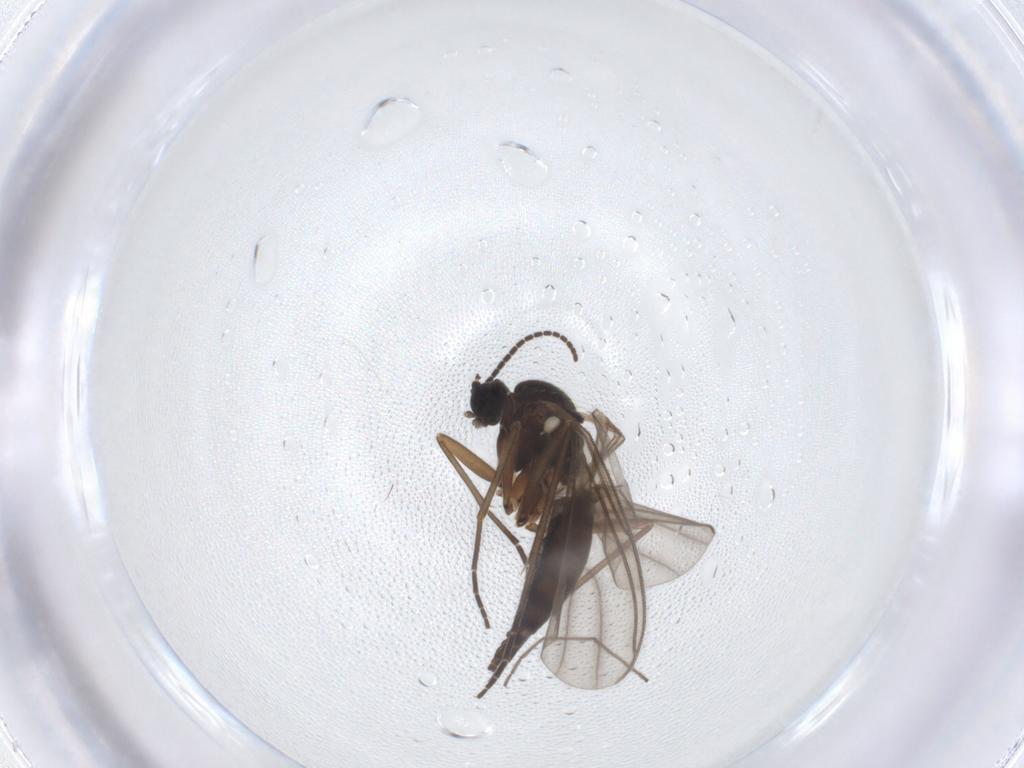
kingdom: Animalia
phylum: Arthropoda
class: Insecta
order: Diptera
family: Sciaridae
